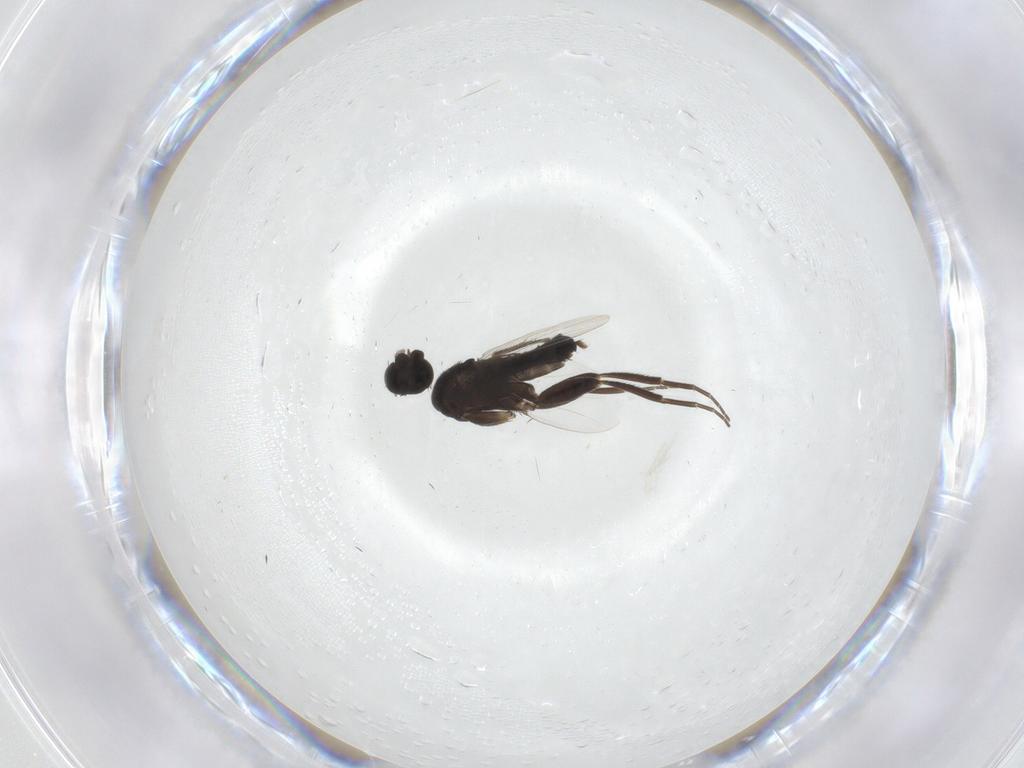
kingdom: Animalia
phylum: Arthropoda
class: Insecta
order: Diptera
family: Phoridae
